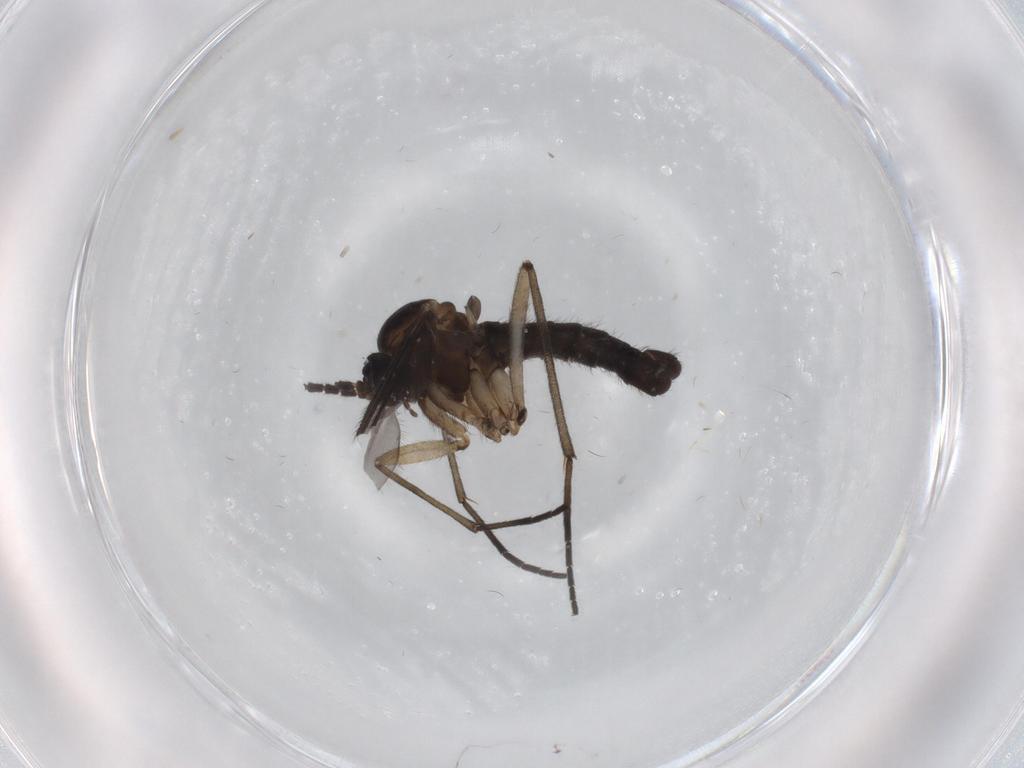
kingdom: Animalia
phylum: Arthropoda
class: Insecta
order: Diptera
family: Sciaridae
